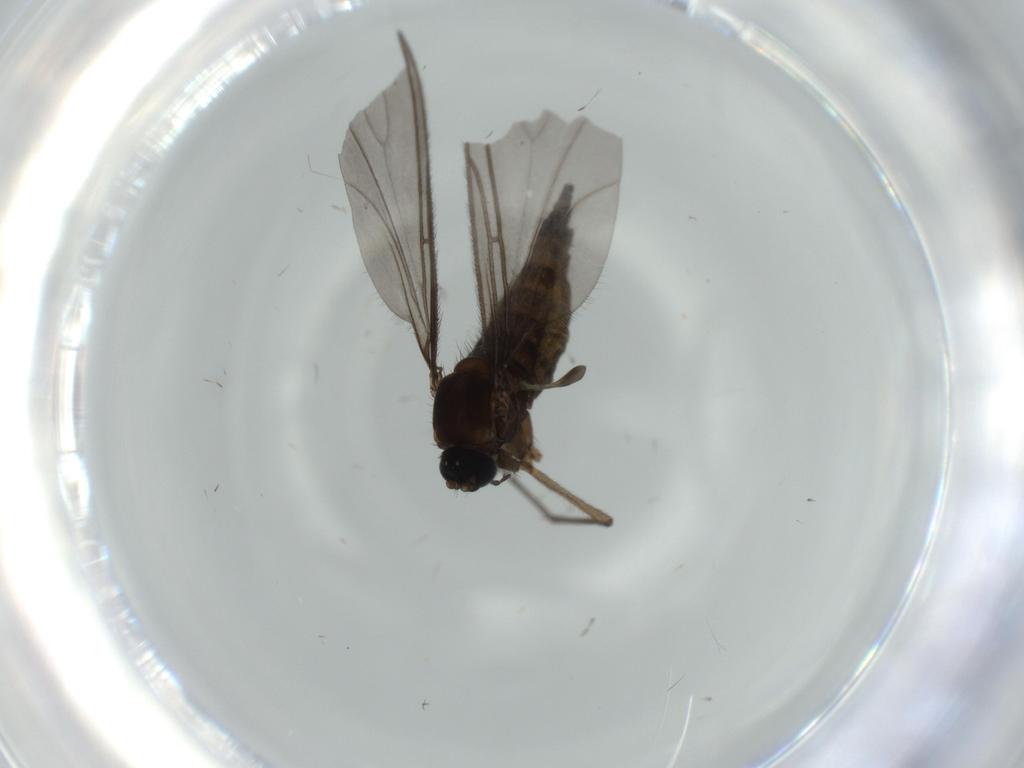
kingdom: Animalia
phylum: Arthropoda
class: Insecta
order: Diptera
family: Sciaridae
